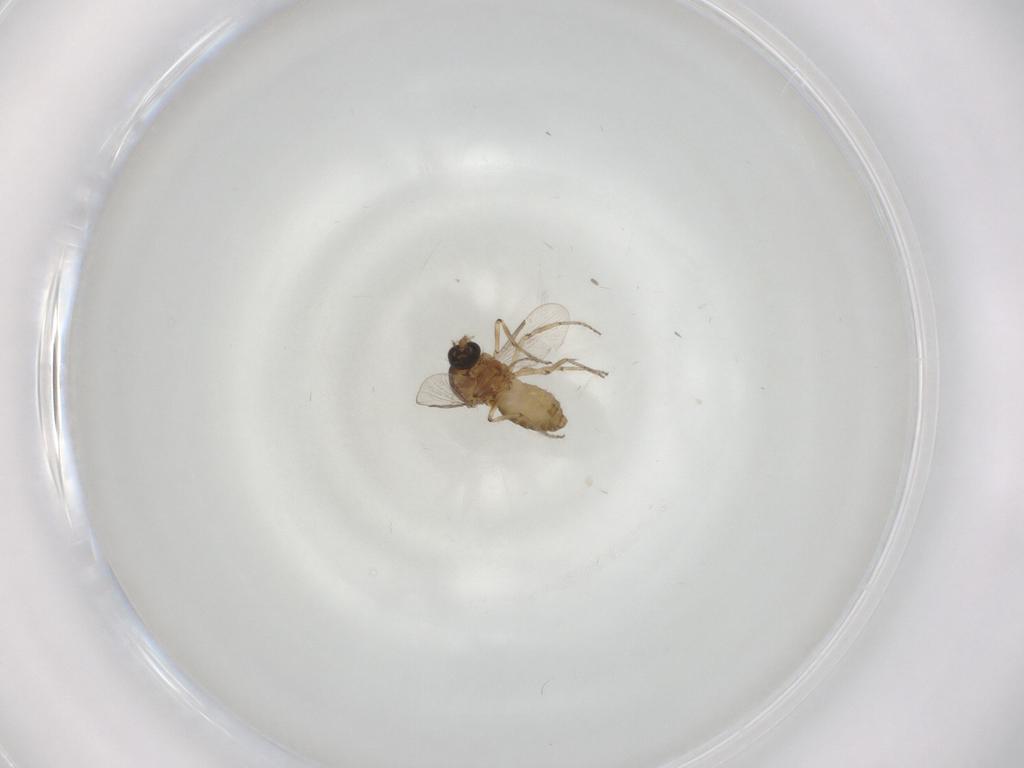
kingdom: Animalia
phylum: Arthropoda
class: Insecta
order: Diptera
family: Ceratopogonidae
